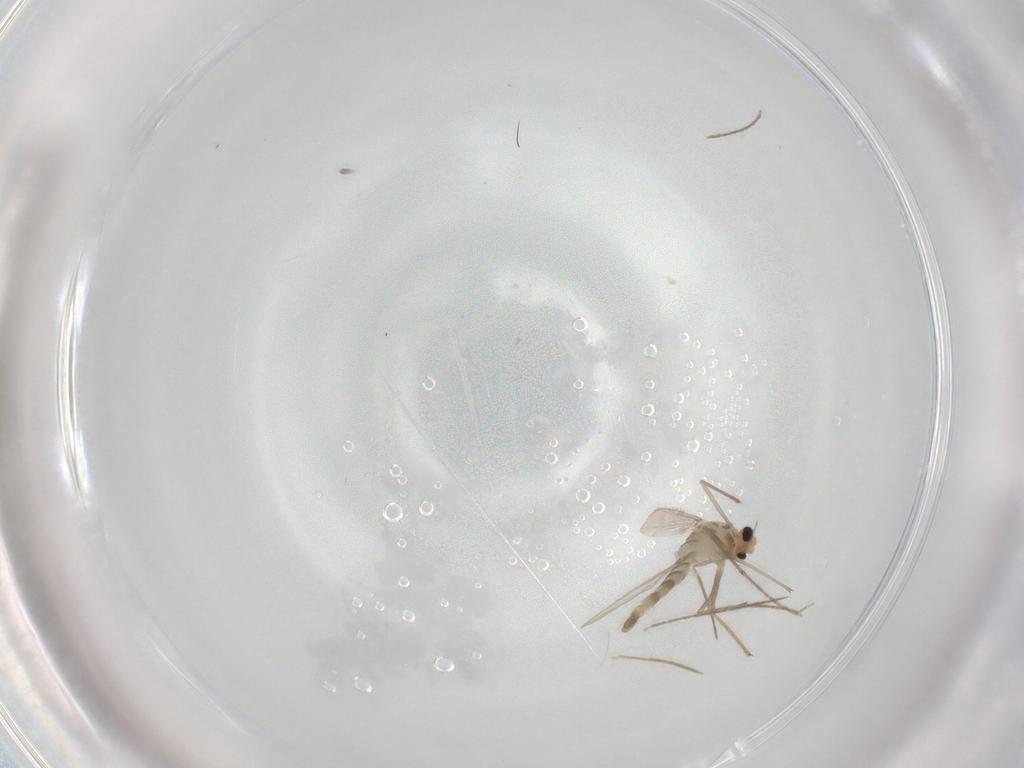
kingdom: Animalia
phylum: Arthropoda
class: Insecta
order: Diptera
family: Chironomidae
